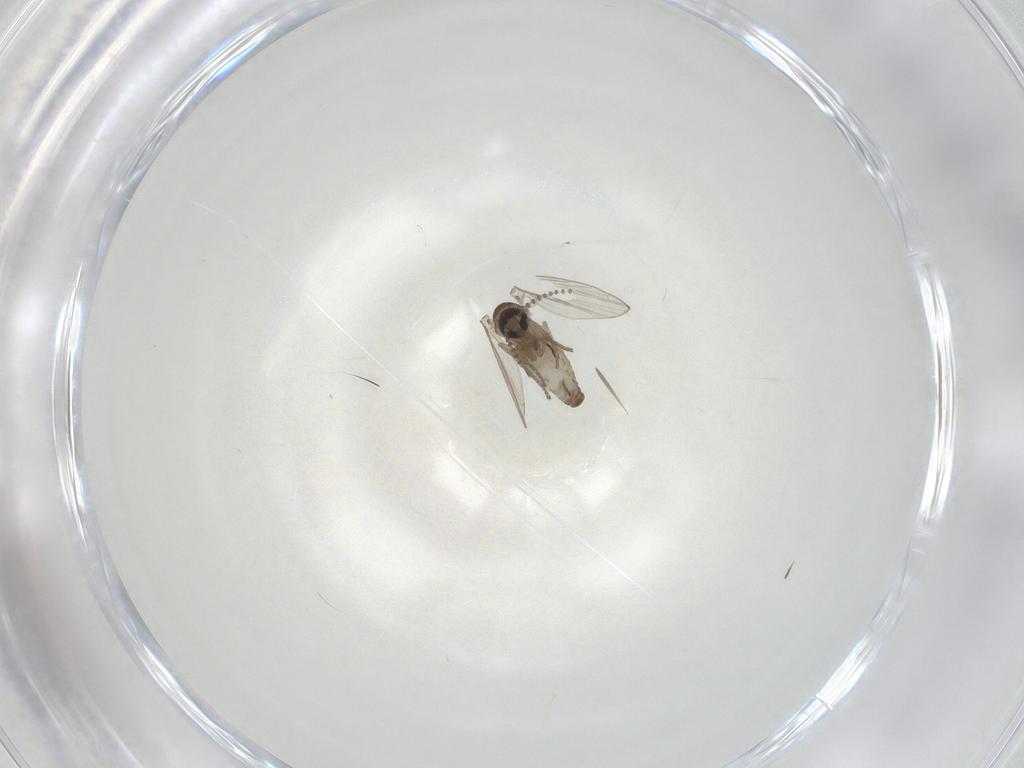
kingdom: Animalia
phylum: Arthropoda
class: Insecta
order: Diptera
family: Psychodidae
